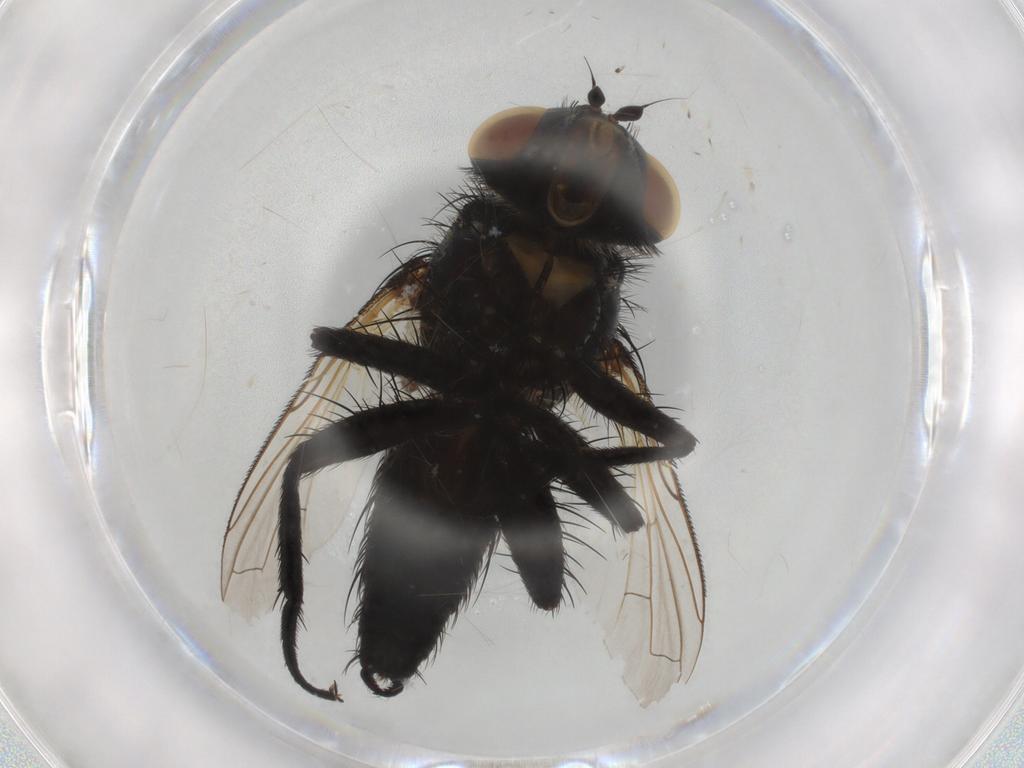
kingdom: Animalia
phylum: Arthropoda
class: Insecta
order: Diptera
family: Tachinidae
